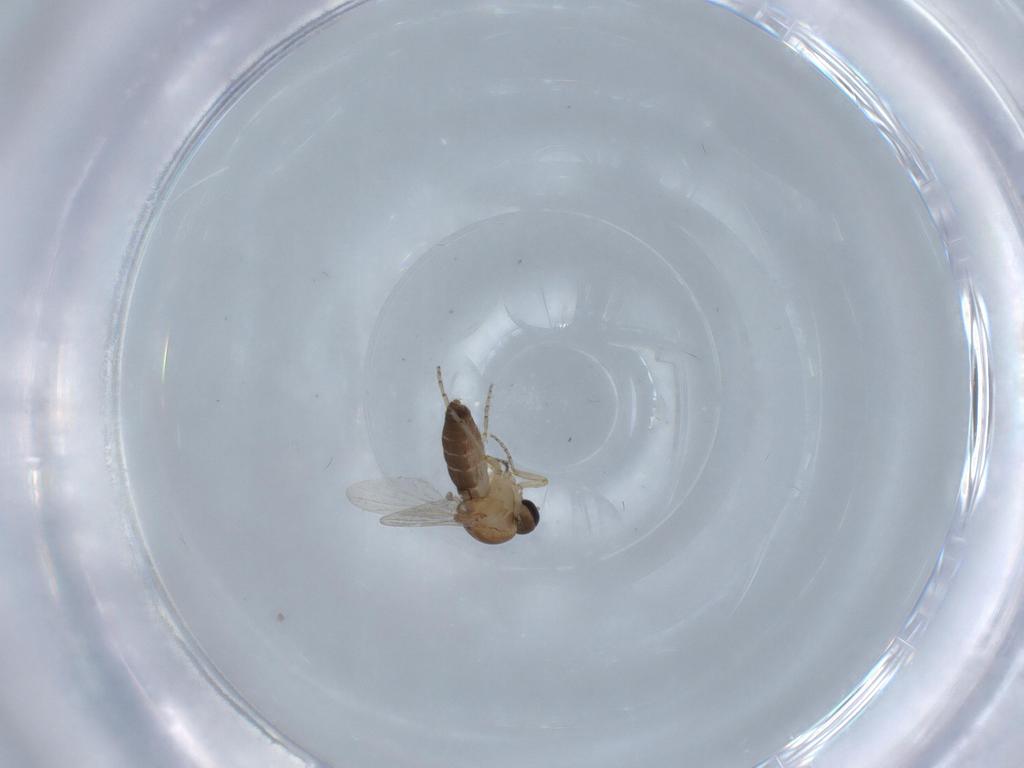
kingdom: Animalia
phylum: Arthropoda
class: Insecta
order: Diptera
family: Ceratopogonidae
